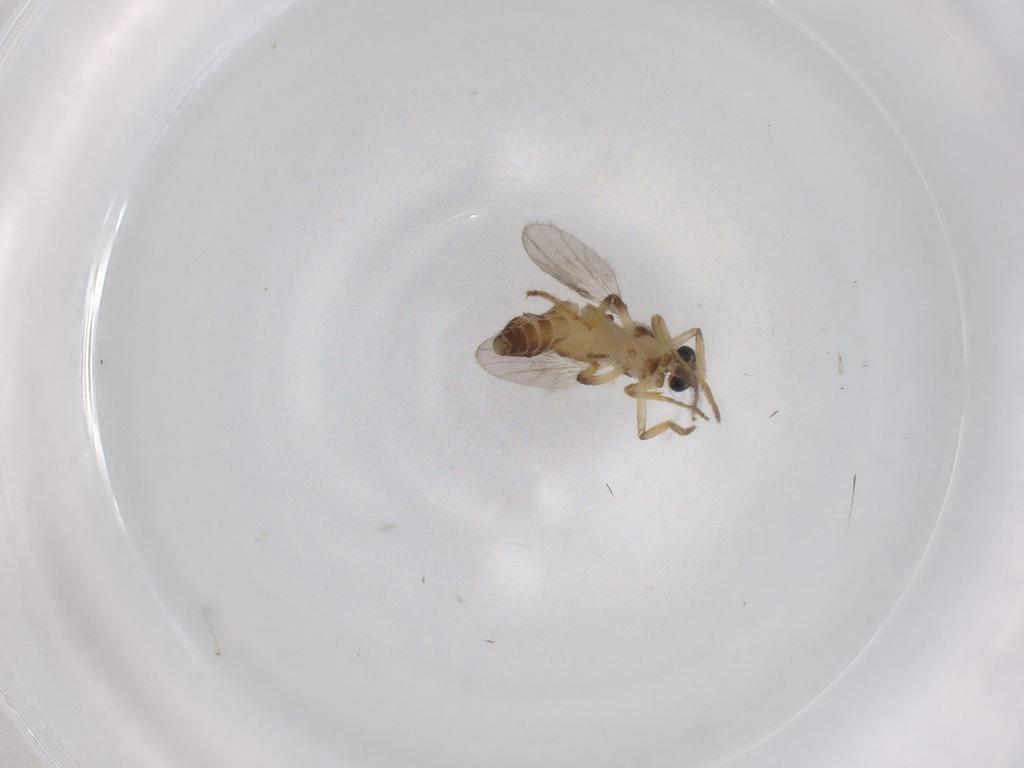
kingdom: Animalia
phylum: Arthropoda
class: Insecta
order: Diptera
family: Ceratopogonidae
